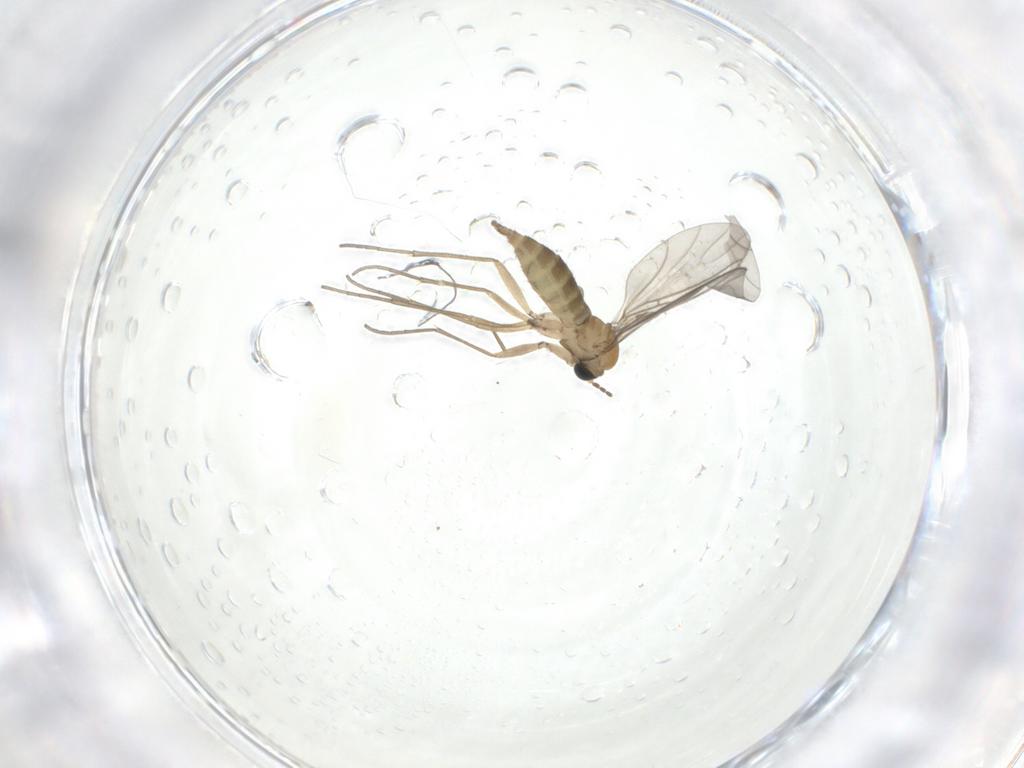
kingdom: Animalia
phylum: Arthropoda
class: Insecta
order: Diptera
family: Sciaridae
